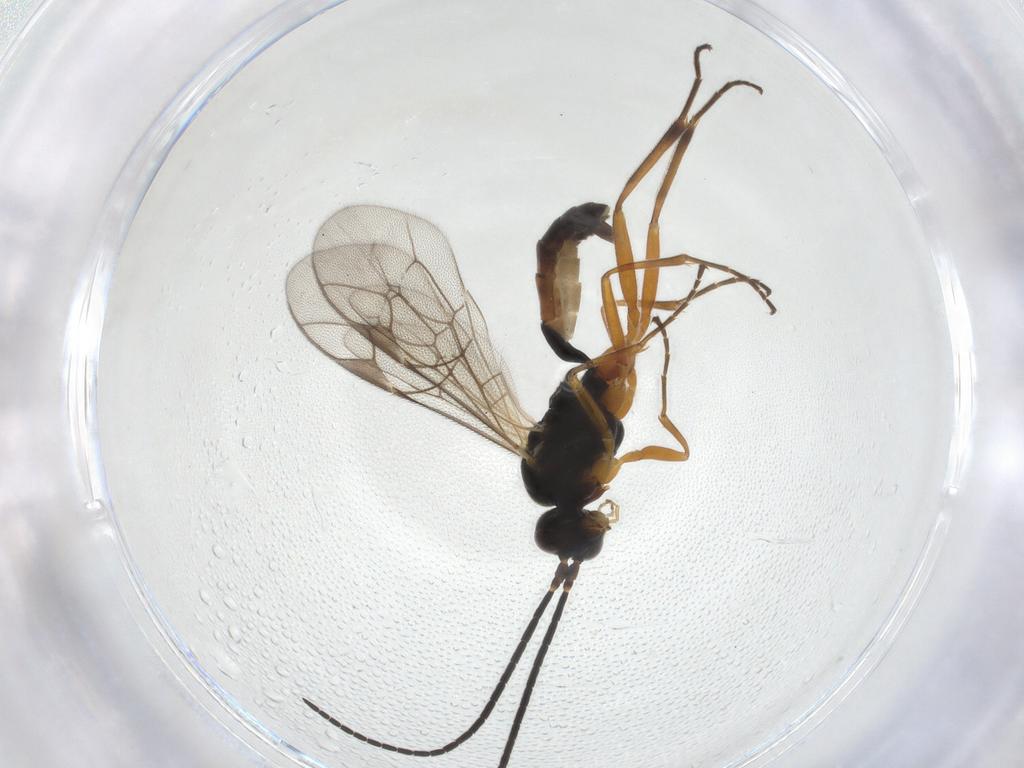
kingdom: Animalia
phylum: Arthropoda
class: Insecta
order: Hymenoptera
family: Ichneumonidae
